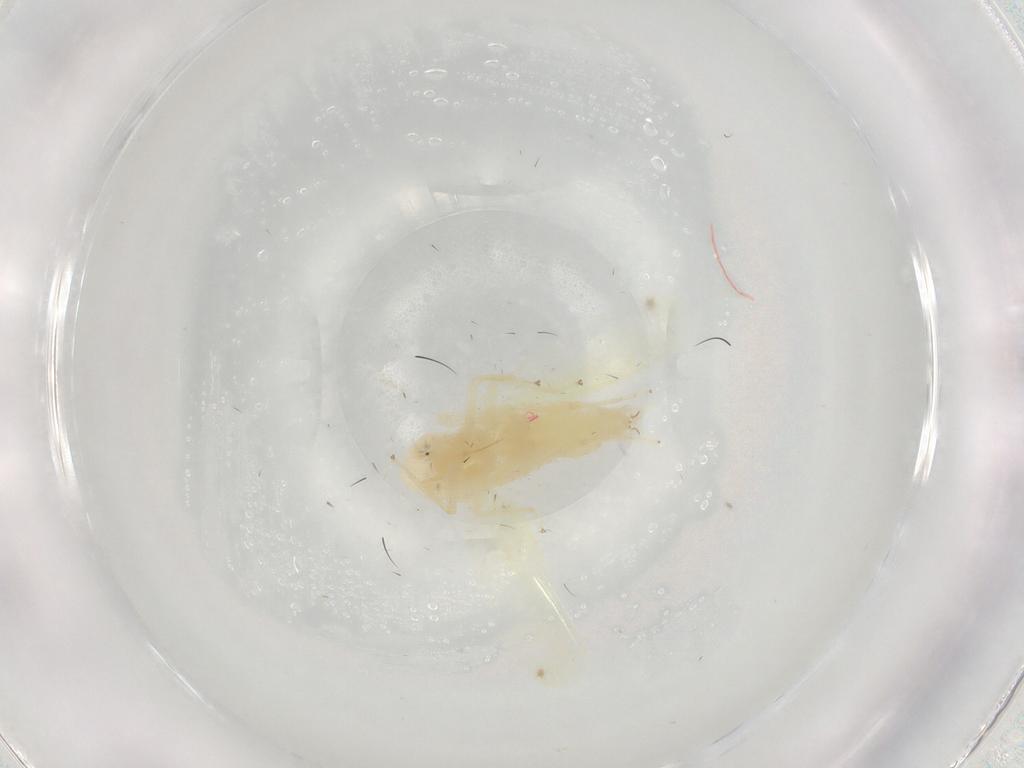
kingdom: Animalia
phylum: Arthropoda
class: Insecta
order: Hemiptera
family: Cicadellidae
